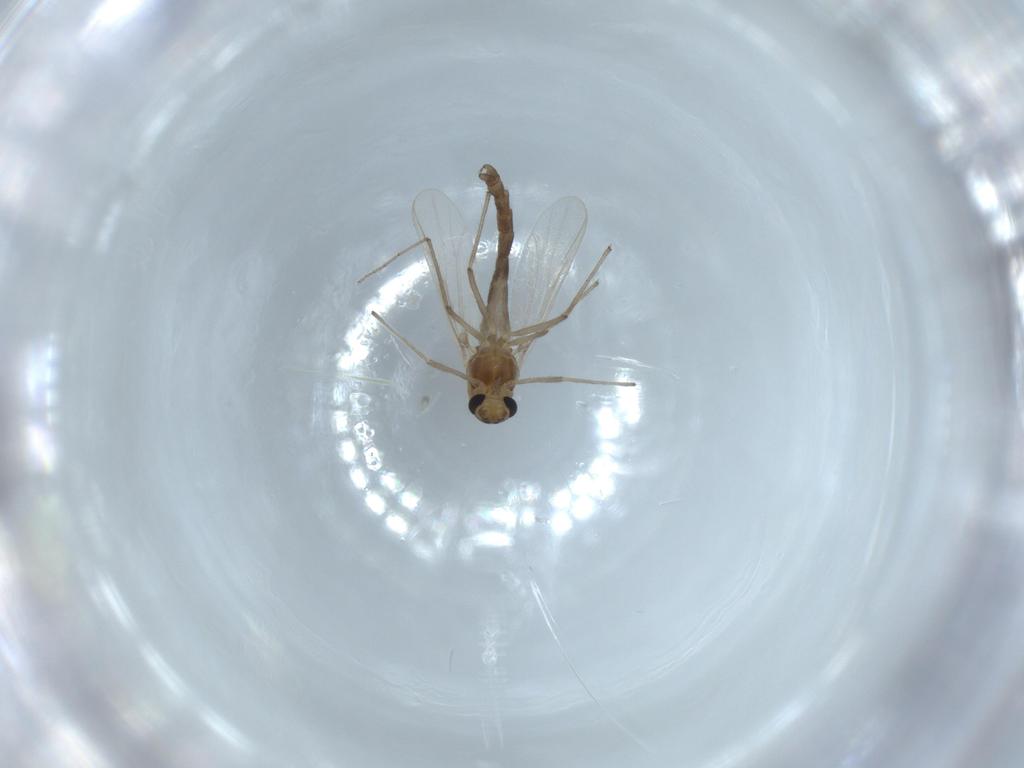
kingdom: Animalia
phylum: Arthropoda
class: Insecta
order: Diptera
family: Chironomidae
